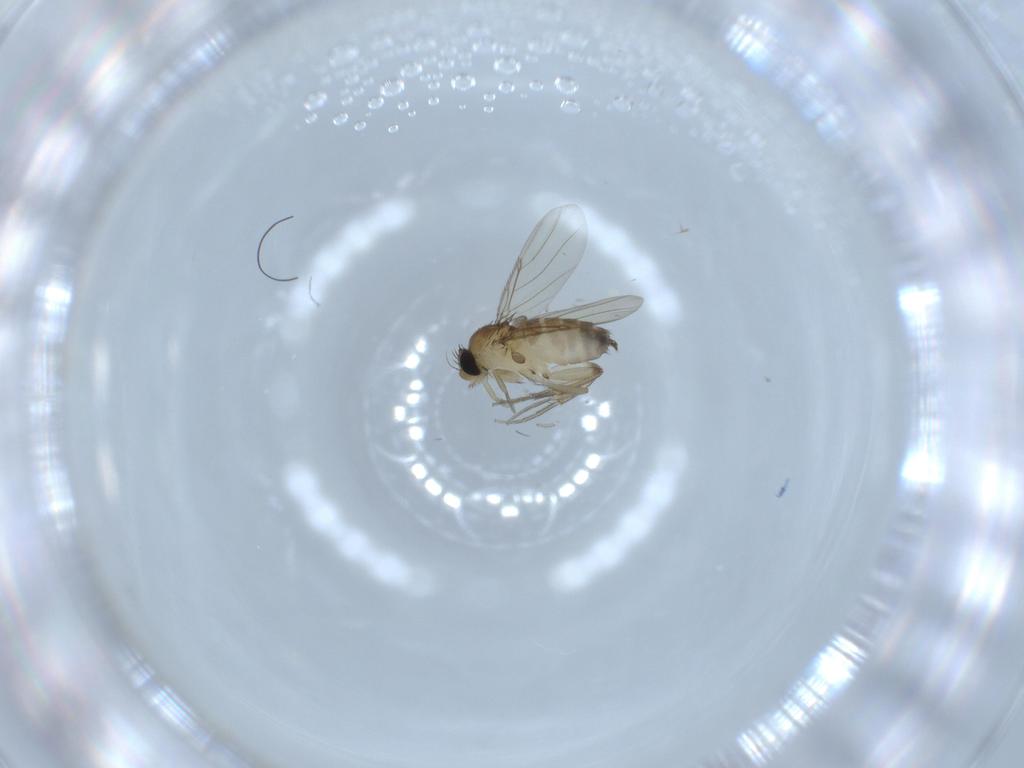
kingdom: Animalia
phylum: Arthropoda
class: Insecta
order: Diptera
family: Phoridae
